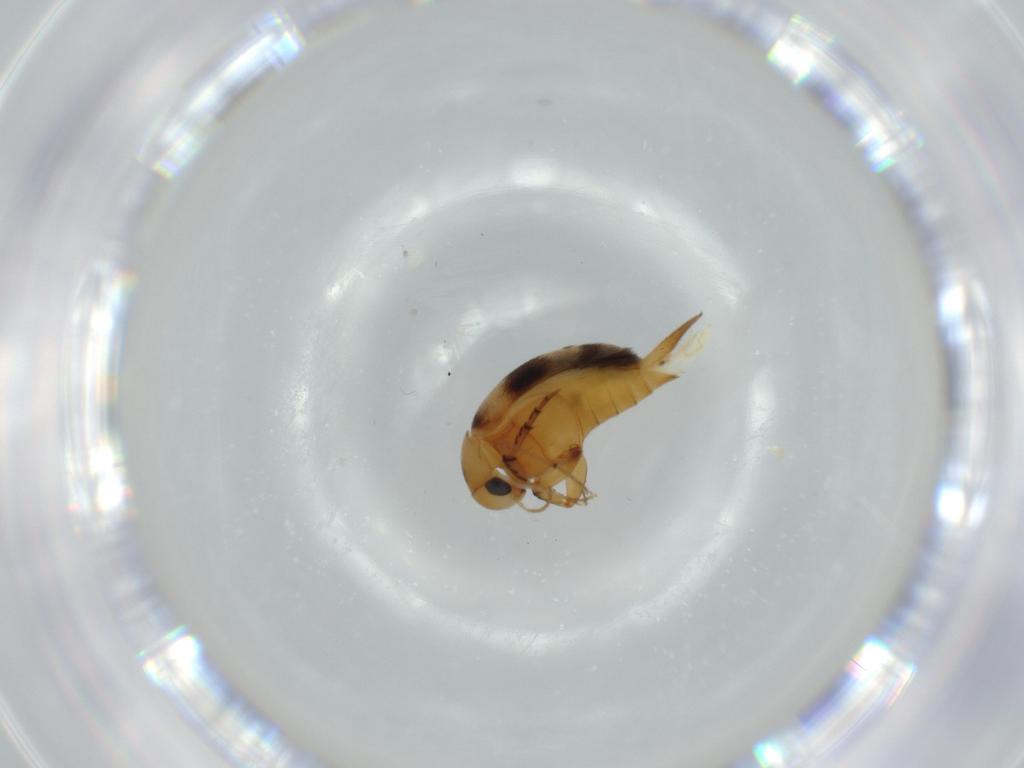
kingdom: Animalia
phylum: Arthropoda
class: Insecta
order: Coleoptera
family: Mordellidae
